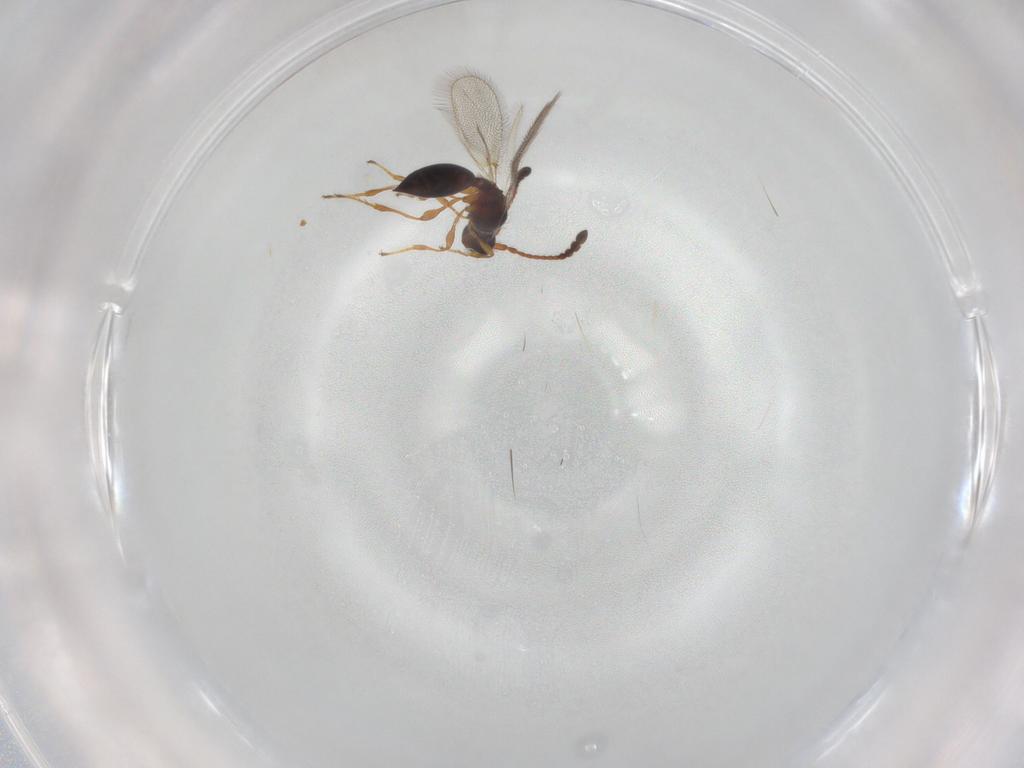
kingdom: Animalia
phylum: Arthropoda
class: Insecta
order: Hymenoptera
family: Diapriidae
